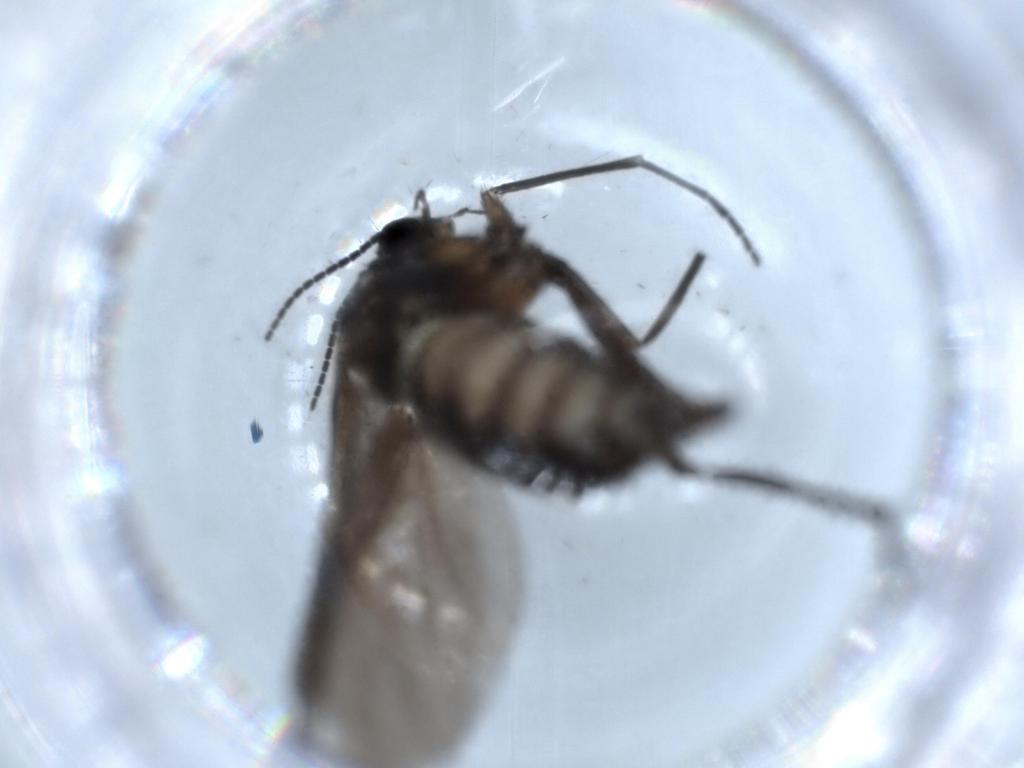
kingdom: Animalia
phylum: Arthropoda
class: Insecta
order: Diptera
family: Sciaridae
